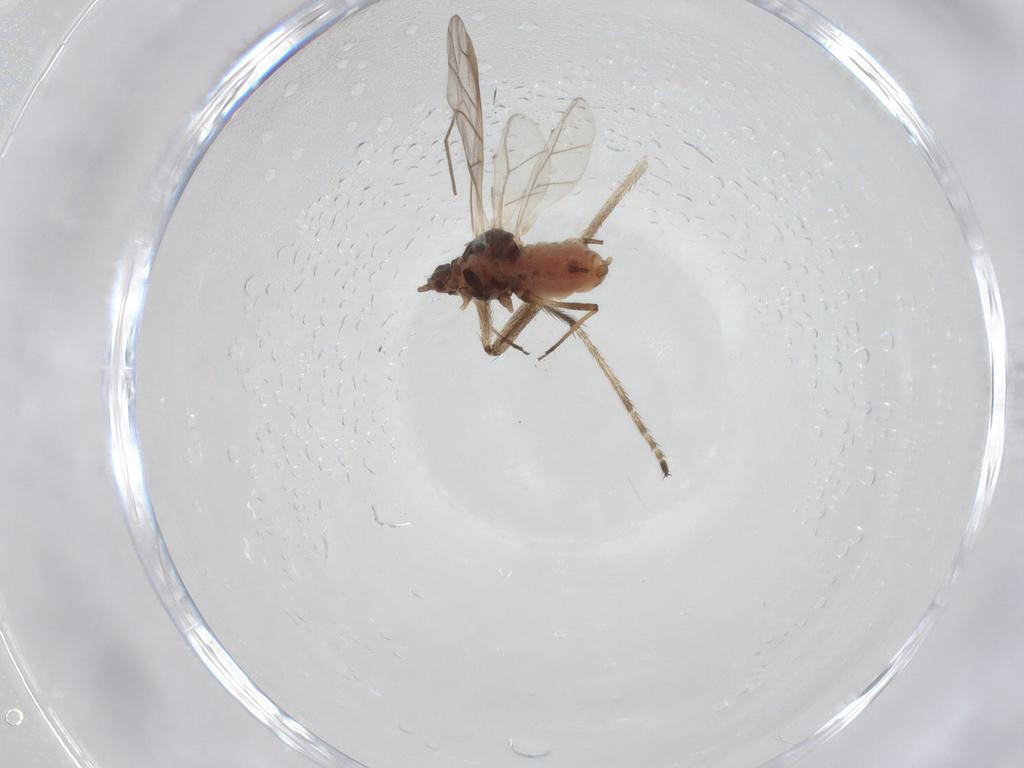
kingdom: Animalia
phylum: Arthropoda
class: Insecta
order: Hemiptera
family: Aphididae
